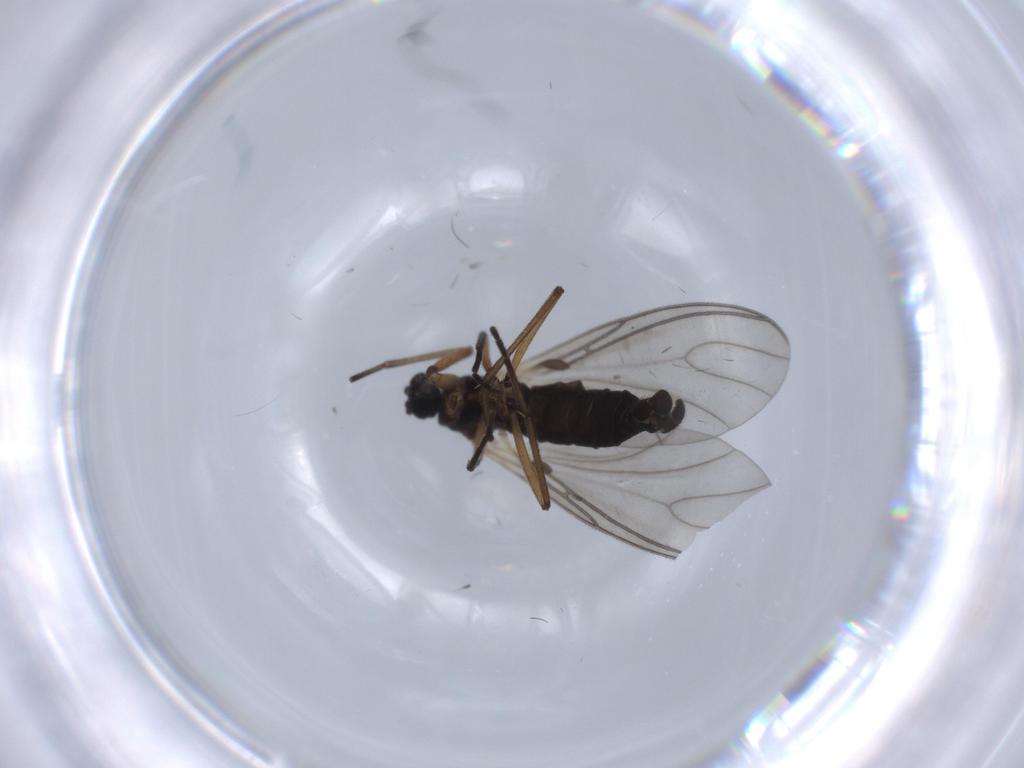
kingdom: Animalia
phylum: Arthropoda
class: Insecta
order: Diptera
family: Sciaridae
